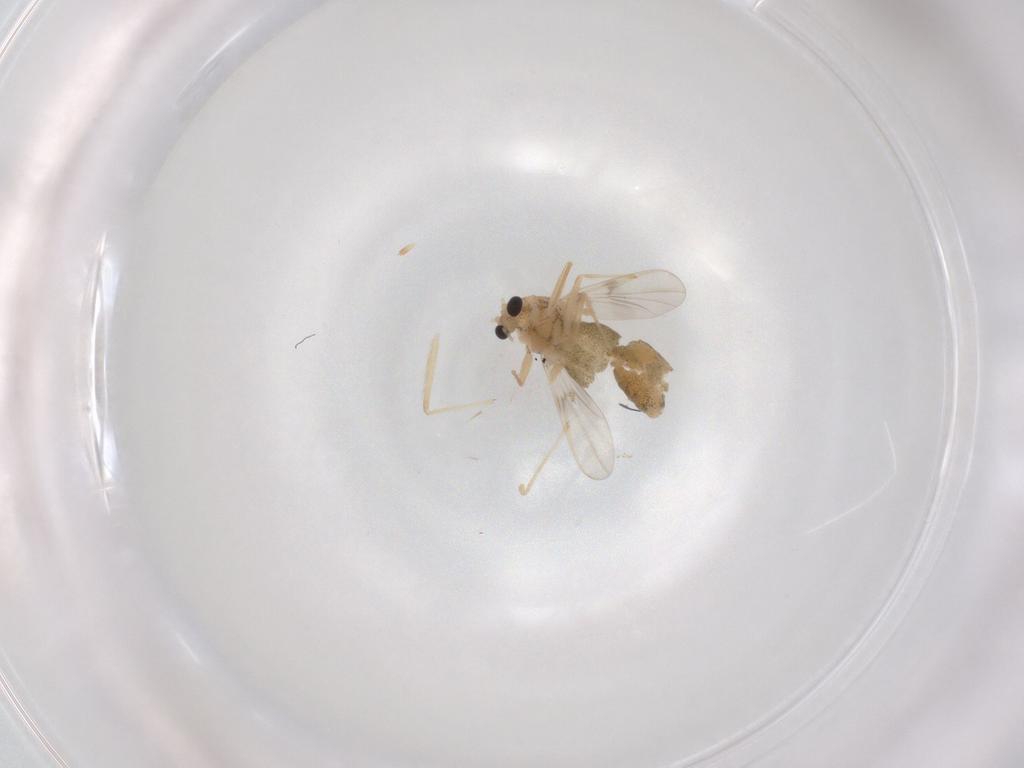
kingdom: Animalia
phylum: Arthropoda
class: Insecta
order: Diptera
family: Chironomidae
